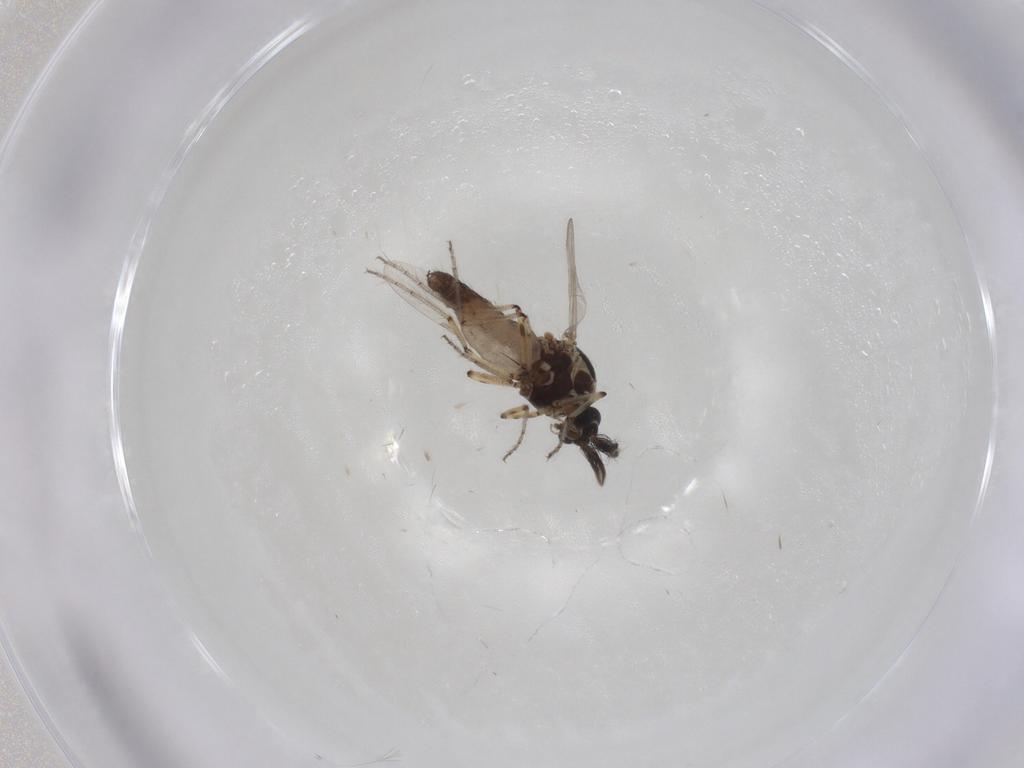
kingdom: Animalia
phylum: Arthropoda
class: Insecta
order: Diptera
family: Ceratopogonidae
